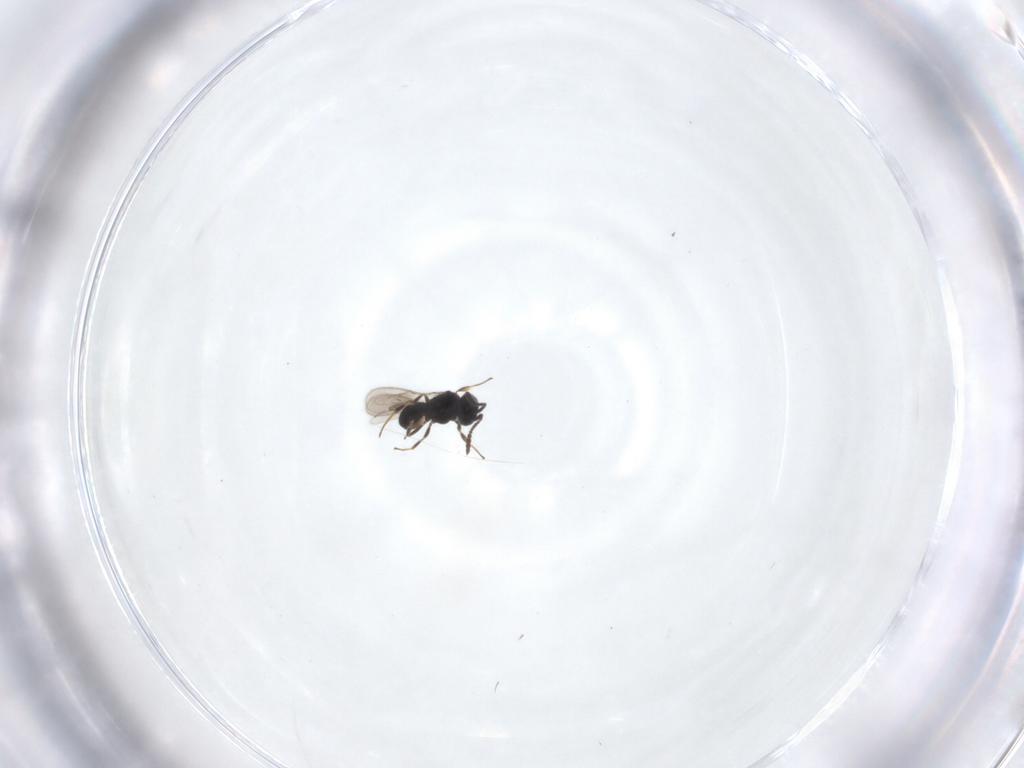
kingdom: Animalia
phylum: Arthropoda
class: Insecta
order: Hymenoptera
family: Scelionidae
